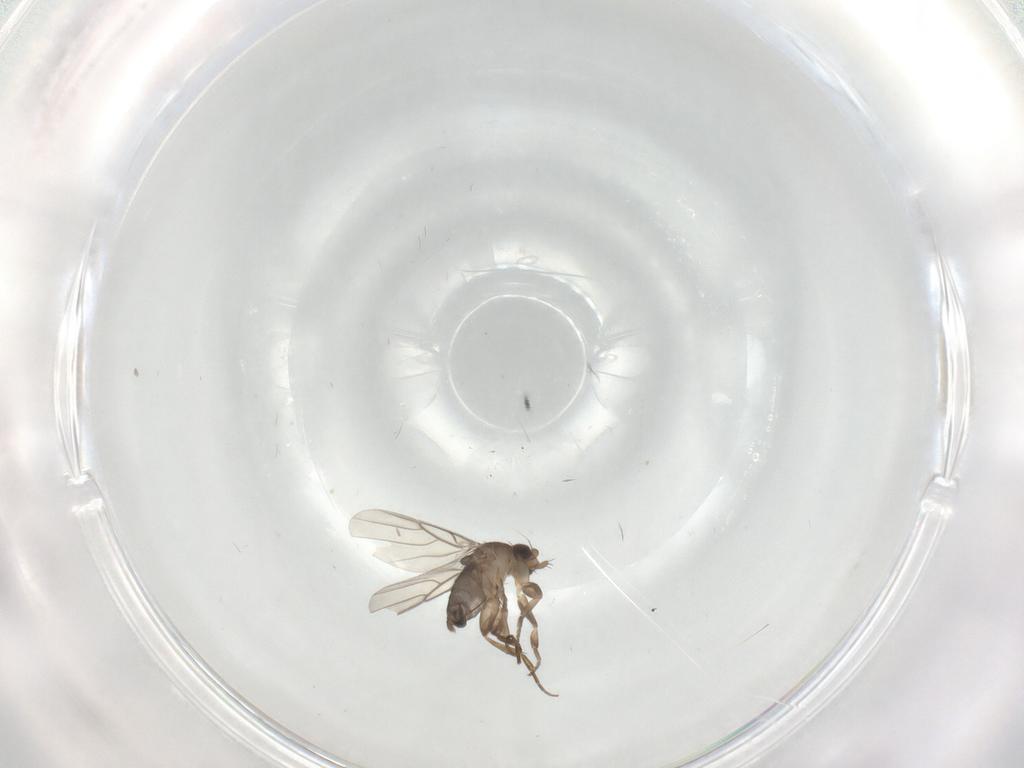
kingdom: Animalia
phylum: Arthropoda
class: Insecta
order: Diptera
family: Phoridae
